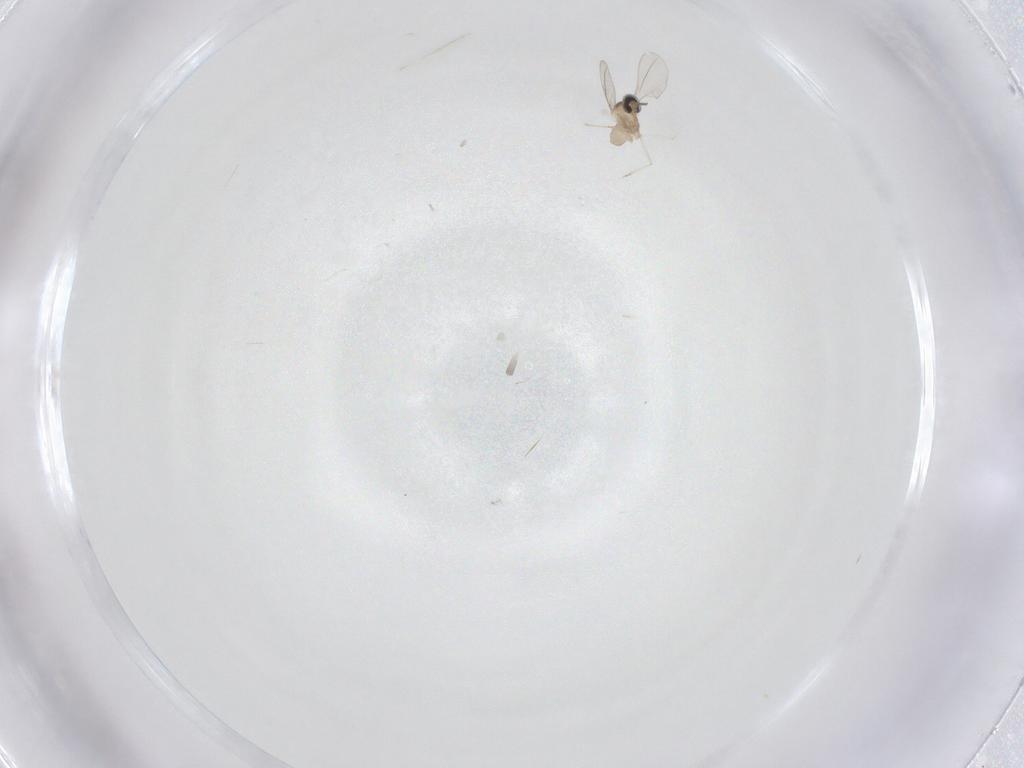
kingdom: Animalia
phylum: Arthropoda
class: Insecta
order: Diptera
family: Cecidomyiidae
